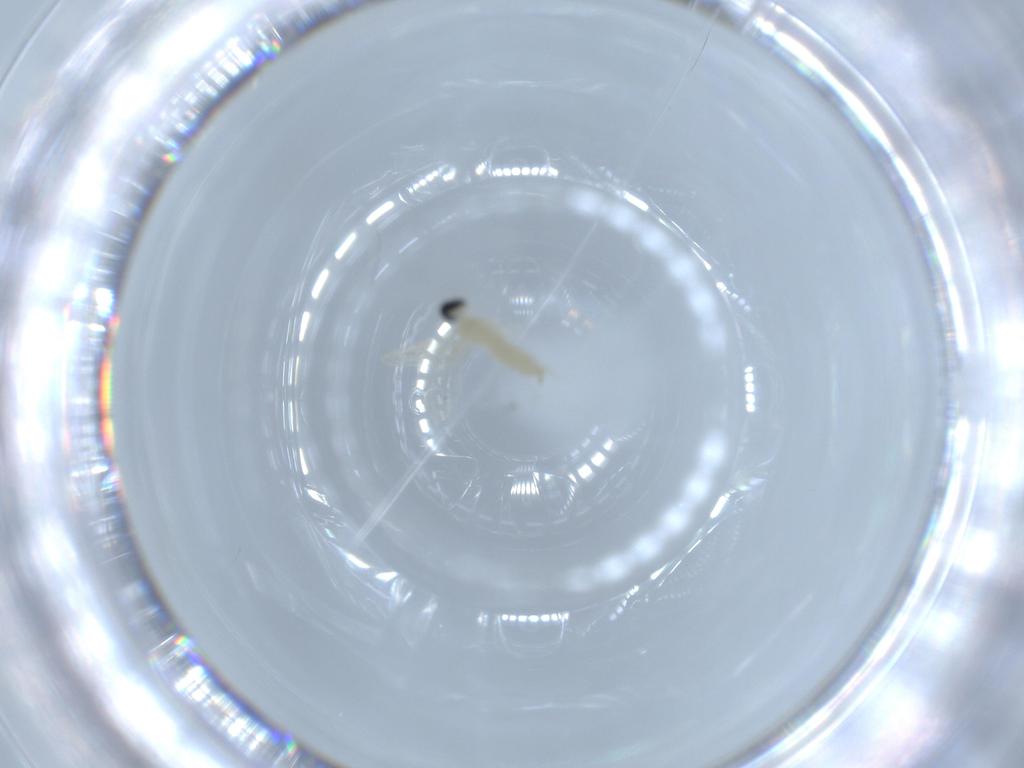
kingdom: Animalia
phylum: Arthropoda
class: Insecta
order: Diptera
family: Cecidomyiidae
